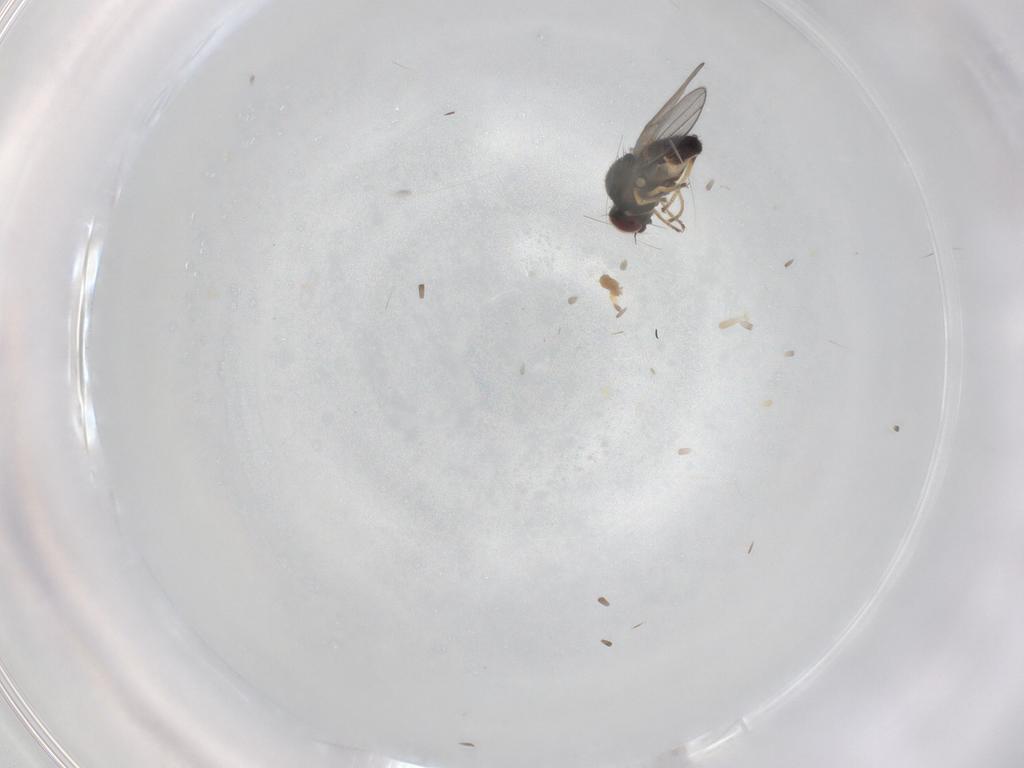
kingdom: Animalia
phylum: Arthropoda
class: Insecta
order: Diptera
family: Chloropidae
